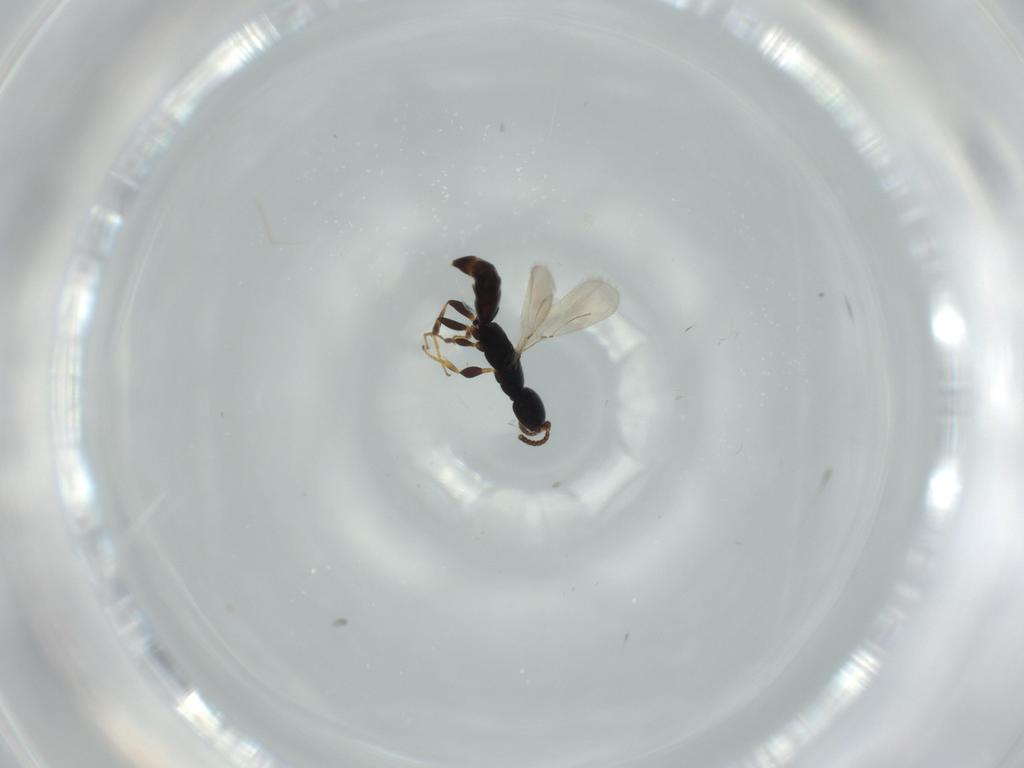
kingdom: Animalia
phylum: Arthropoda
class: Insecta
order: Hymenoptera
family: Bethylidae
